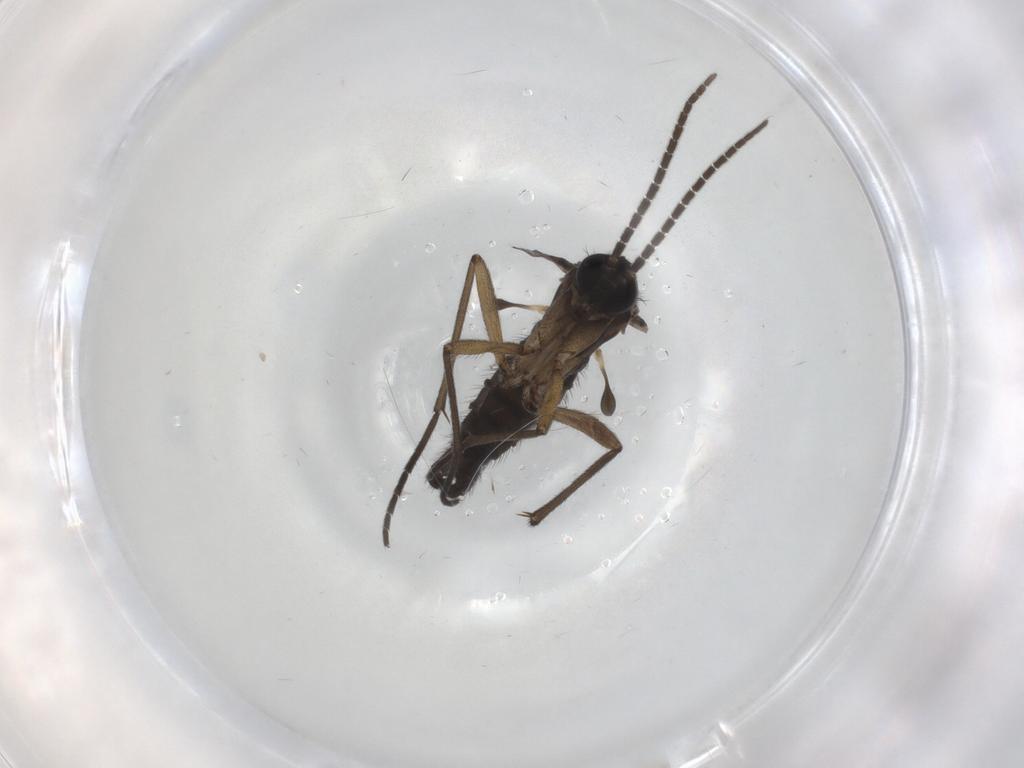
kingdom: Animalia
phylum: Arthropoda
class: Insecta
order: Diptera
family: Sciaridae
